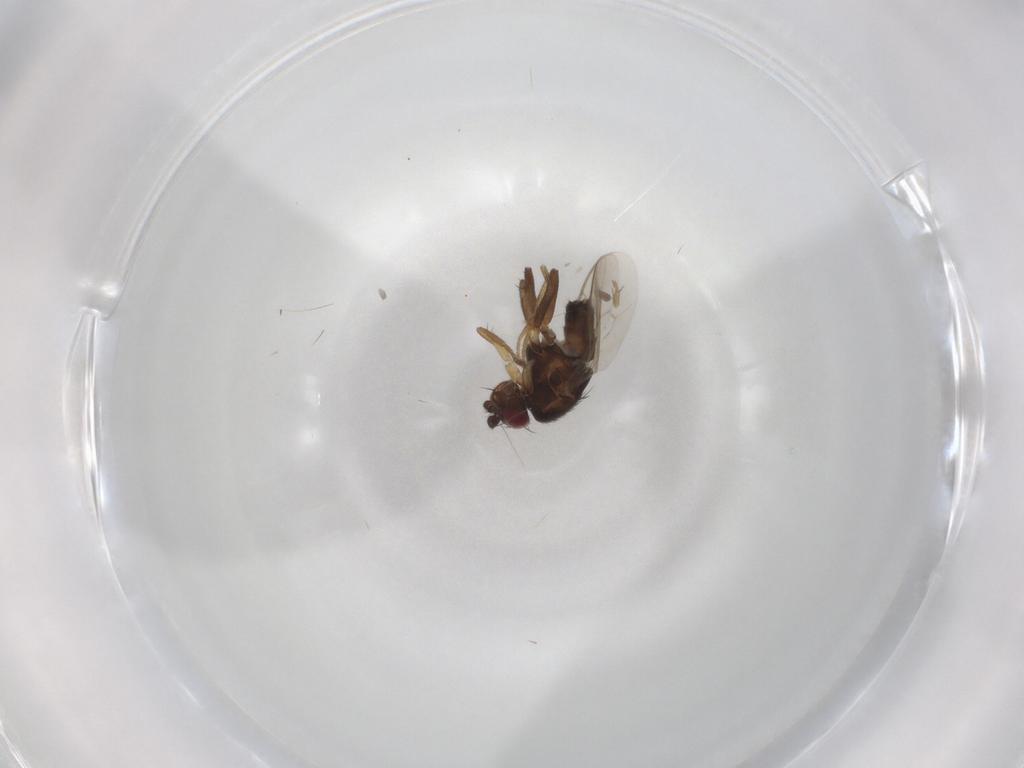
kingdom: Animalia
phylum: Arthropoda
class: Insecta
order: Diptera
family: Sphaeroceridae
